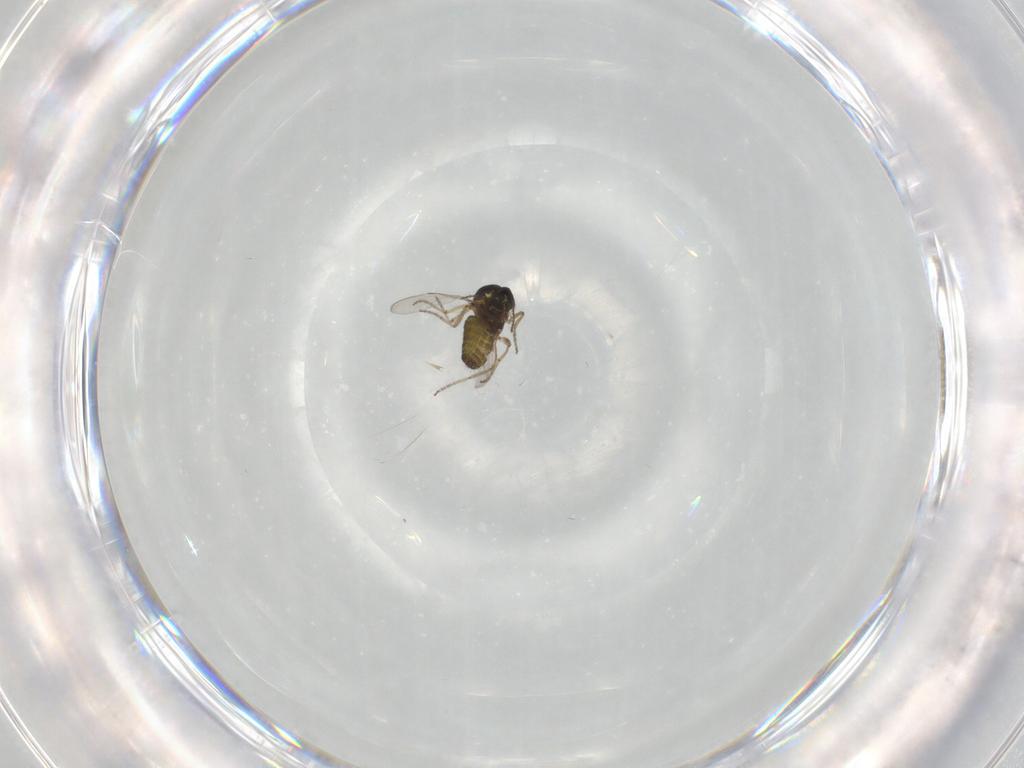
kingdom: Animalia
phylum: Arthropoda
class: Insecta
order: Diptera
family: Ceratopogonidae
